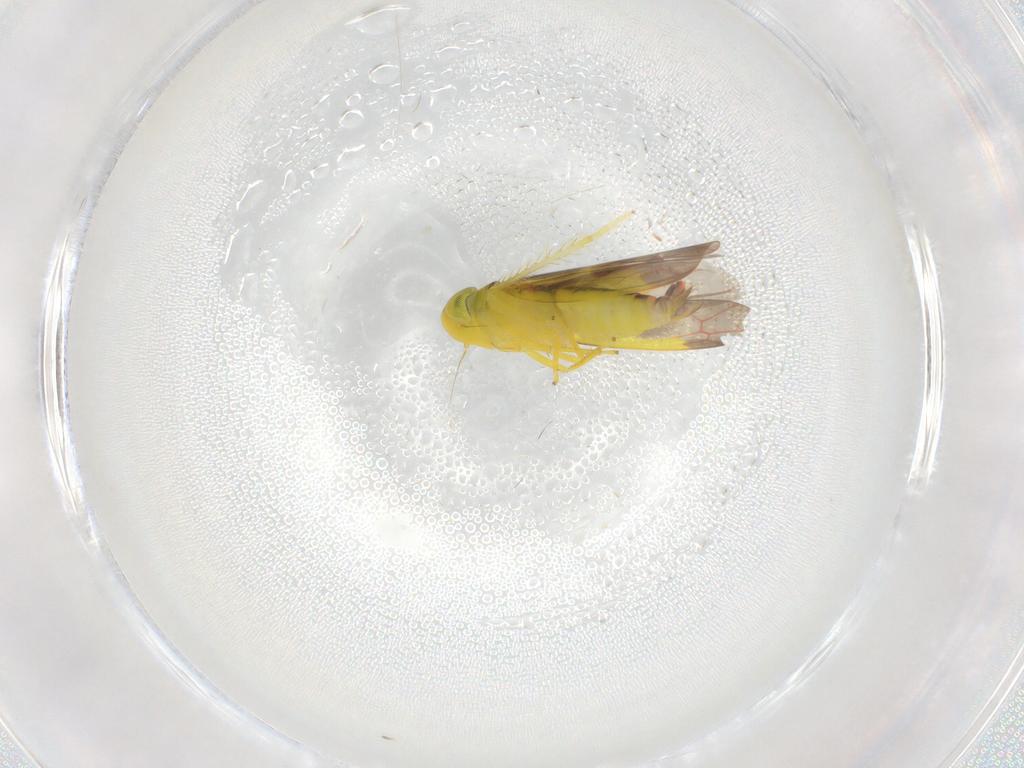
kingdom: Animalia
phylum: Arthropoda
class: Insecta
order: Hemiptera
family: Cicadellidae
